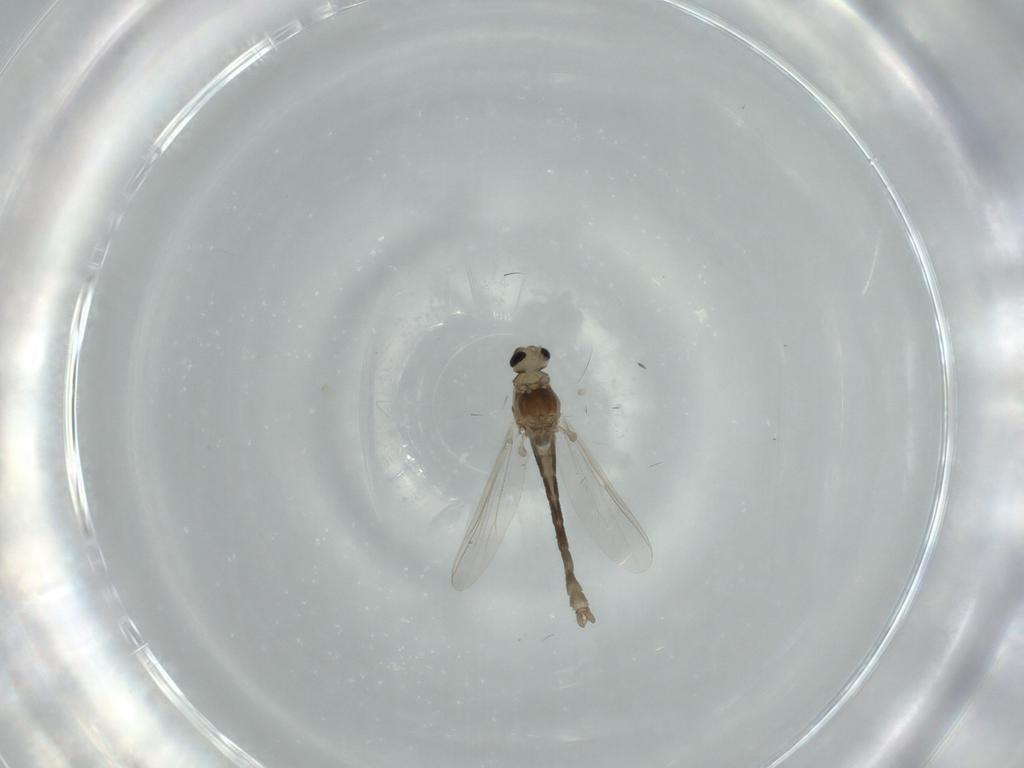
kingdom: Animalia
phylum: Arthropoda
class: Insecta
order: Diptera
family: Chironomidae
